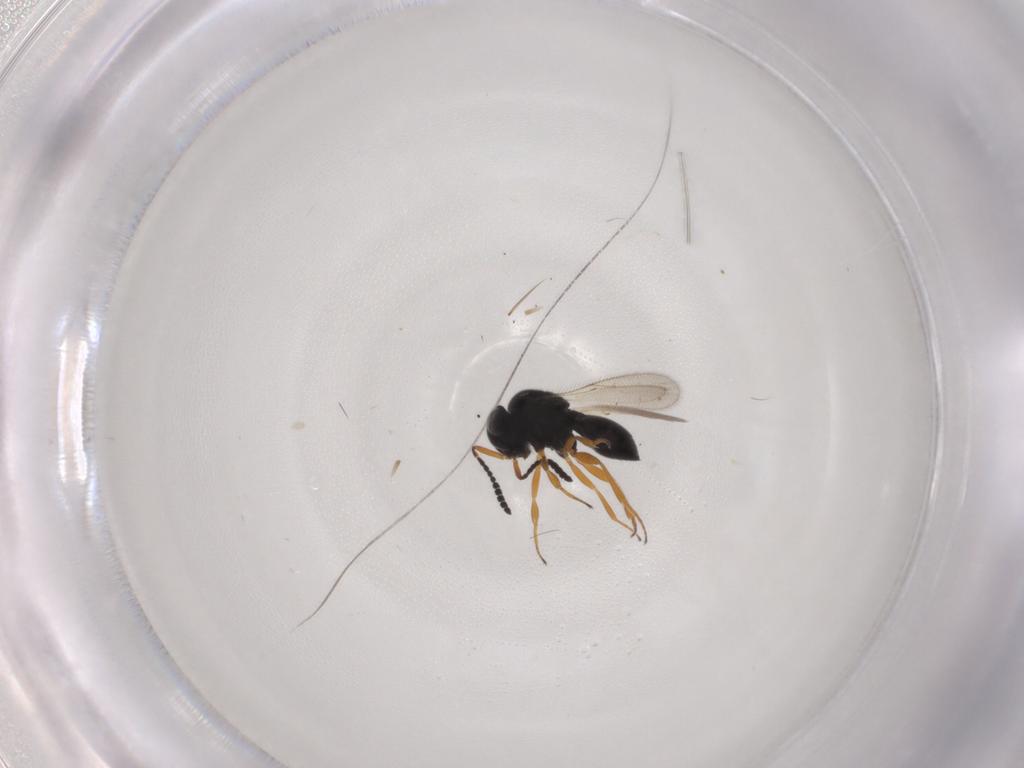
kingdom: Animalia
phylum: Arthropoda
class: Insecta
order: Hymenoptera
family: Scelionidae
